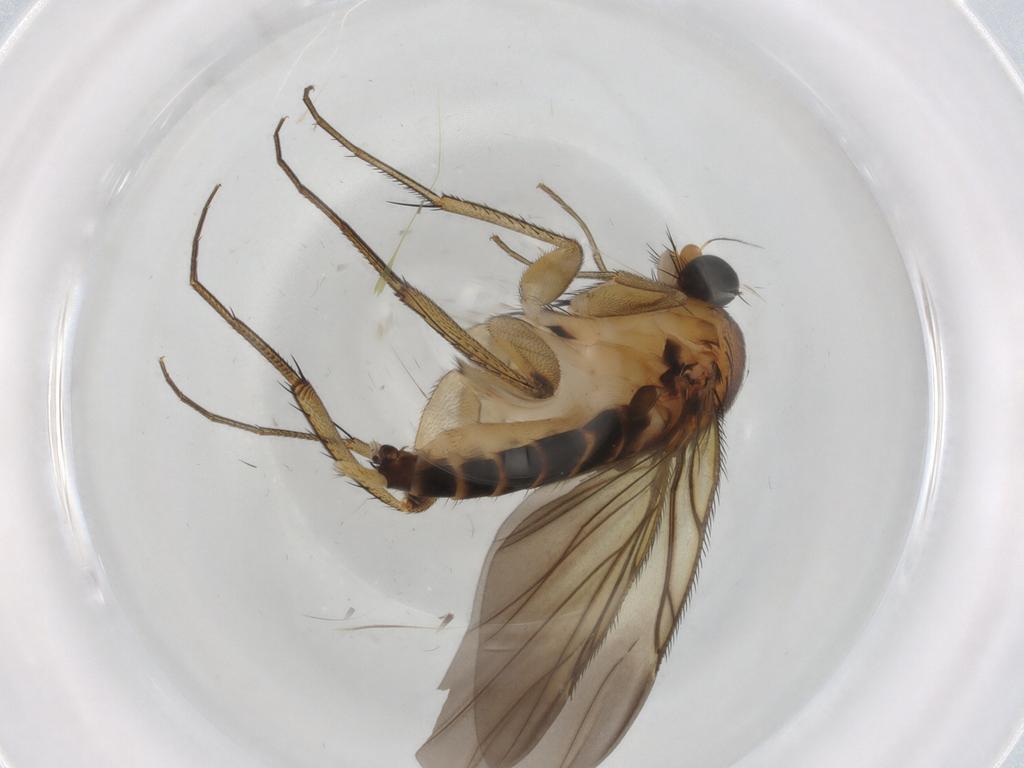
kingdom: Animalia
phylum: Arthropoda
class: Insecta
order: Diptera
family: Phoridae
